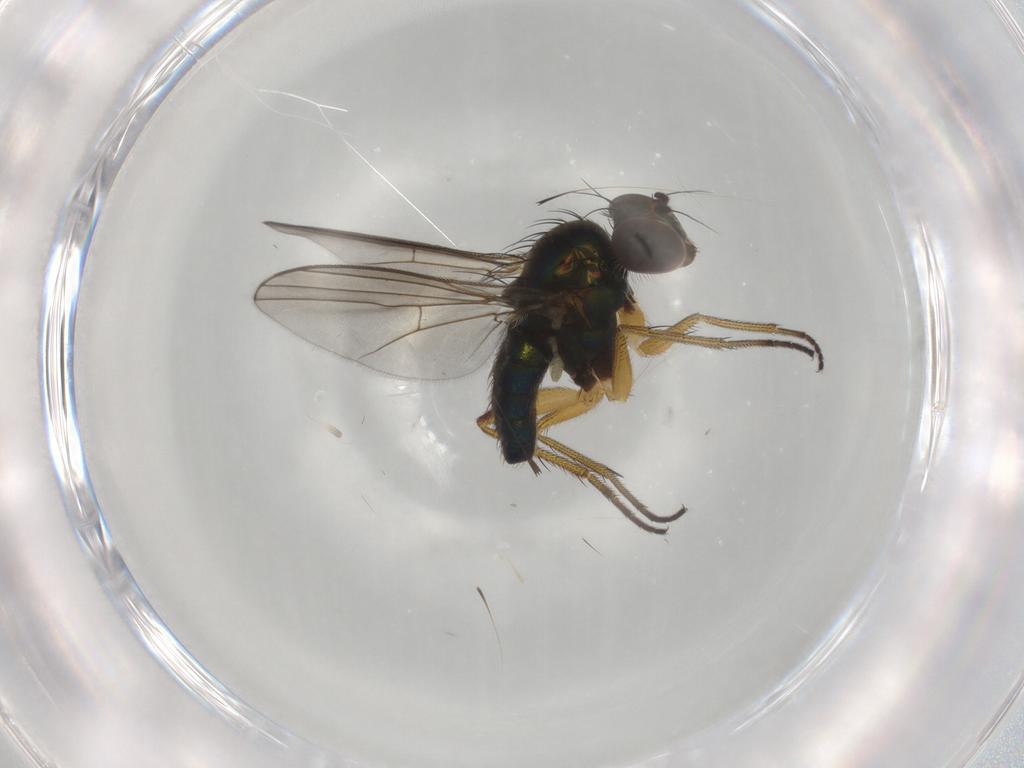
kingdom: Animalia
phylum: Arthropoda
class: Insecta
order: Diptera
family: Dolichopodidae
